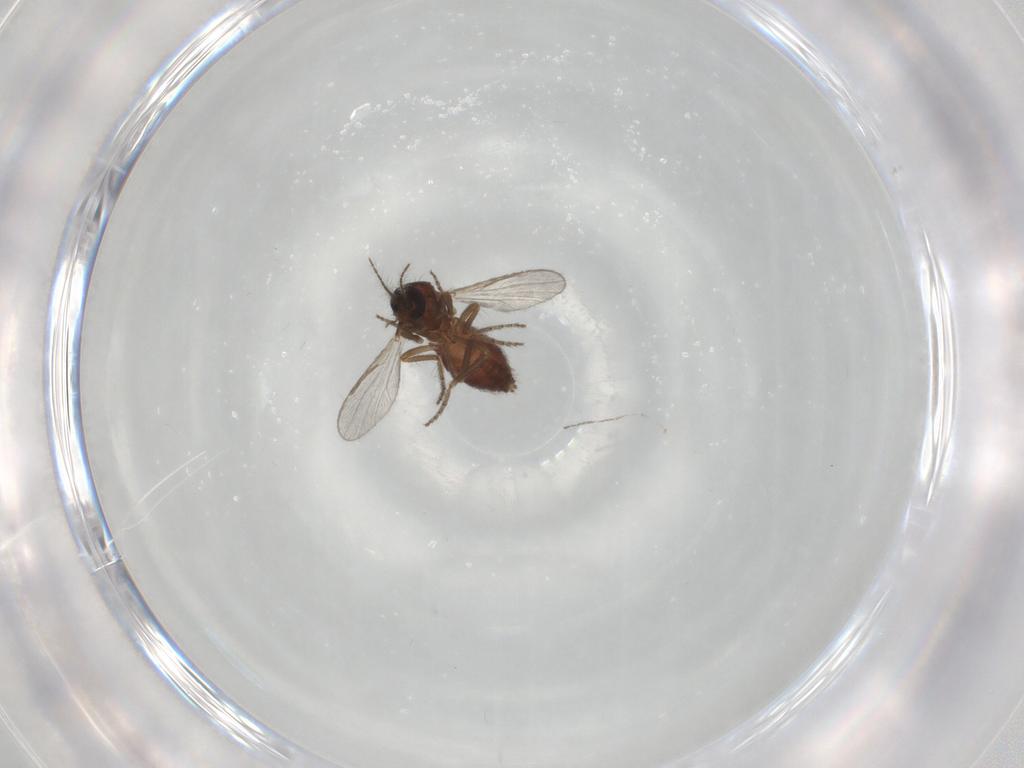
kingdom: Animalia
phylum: Arthropoda
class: Insecta
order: Diptera
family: Ceratopogonidae
